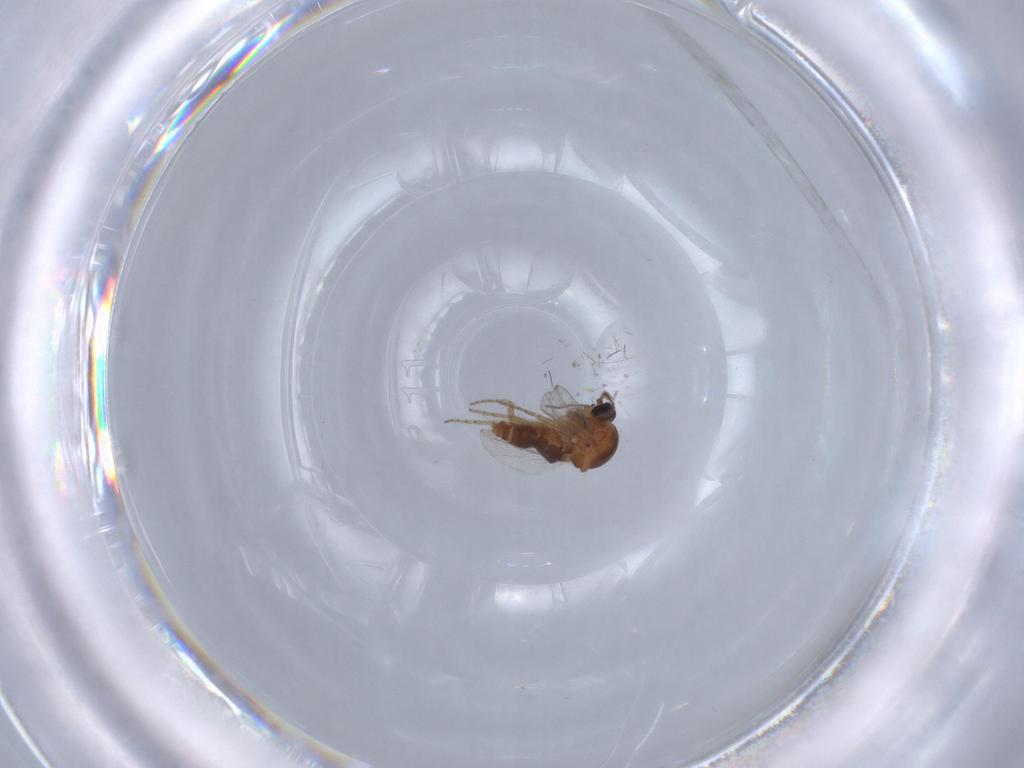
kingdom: Animalia
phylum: Arthropoda
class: Insecta
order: Diptera
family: Ceratopogonidae
